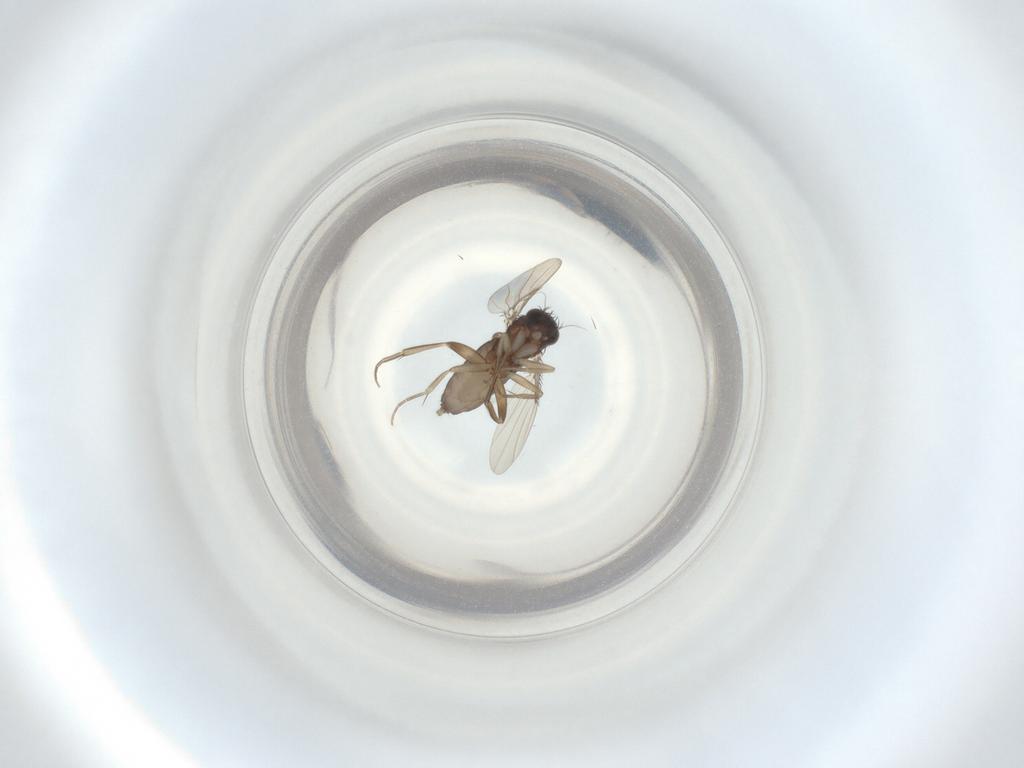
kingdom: Animalia
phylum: Arthropoda
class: Insecta
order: Diptera
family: Phoridae
